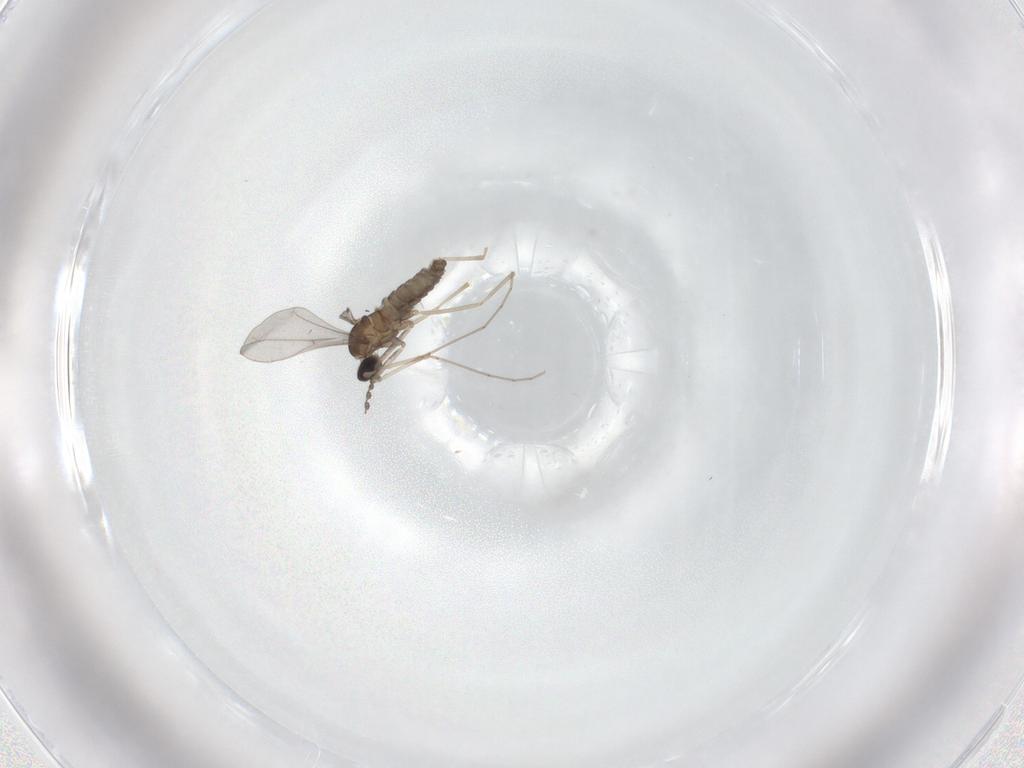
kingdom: Animalia
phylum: Arthropoda
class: Insecta
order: Diptera
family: Cecidomyiidae
